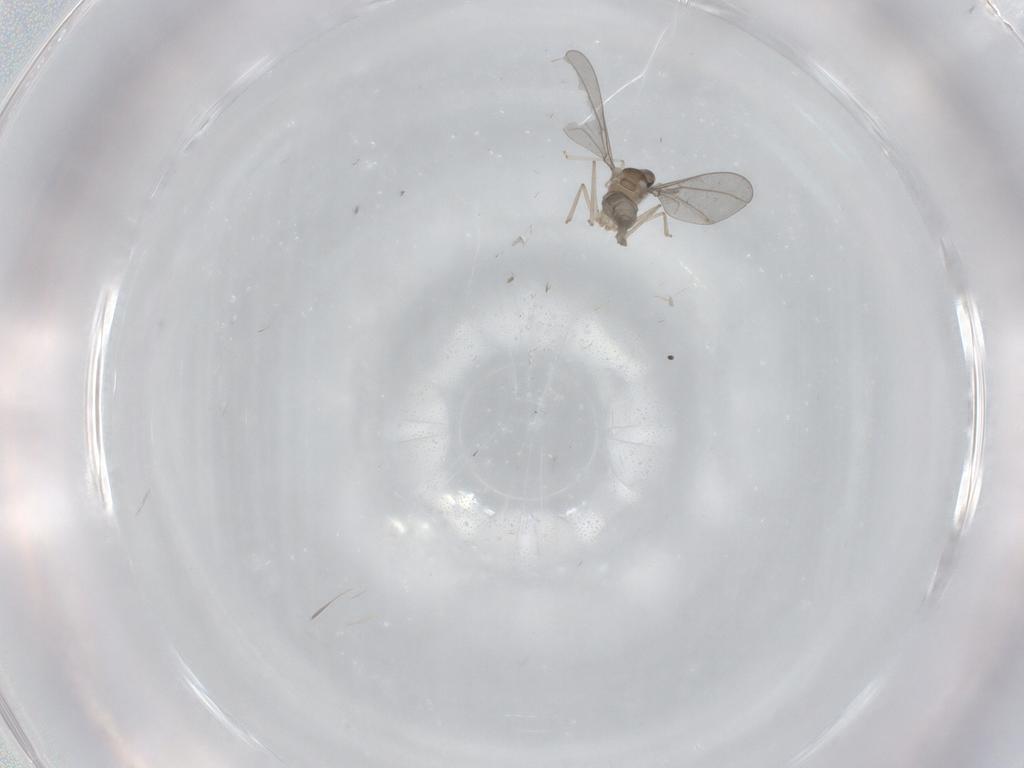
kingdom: Animalia
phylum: Arthropoda
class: Insecta
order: Diptera
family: Cecidomyiidae
